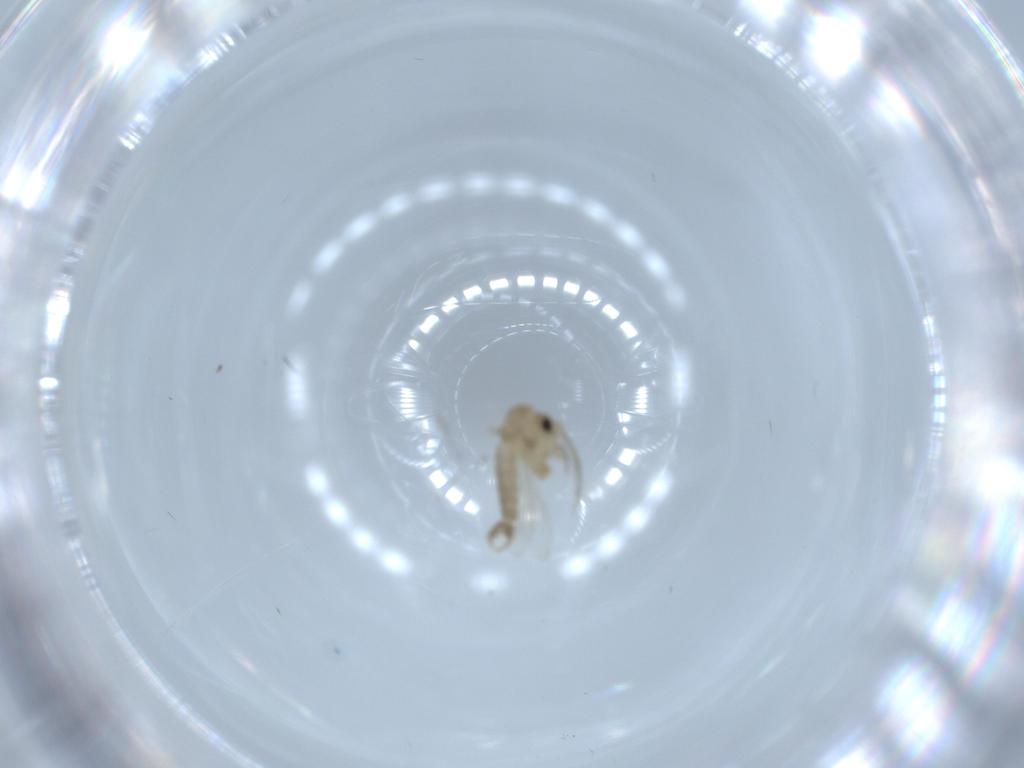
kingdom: Animalia
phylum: Arthropoda
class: Insecta
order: Diptera
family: Psychodidae
